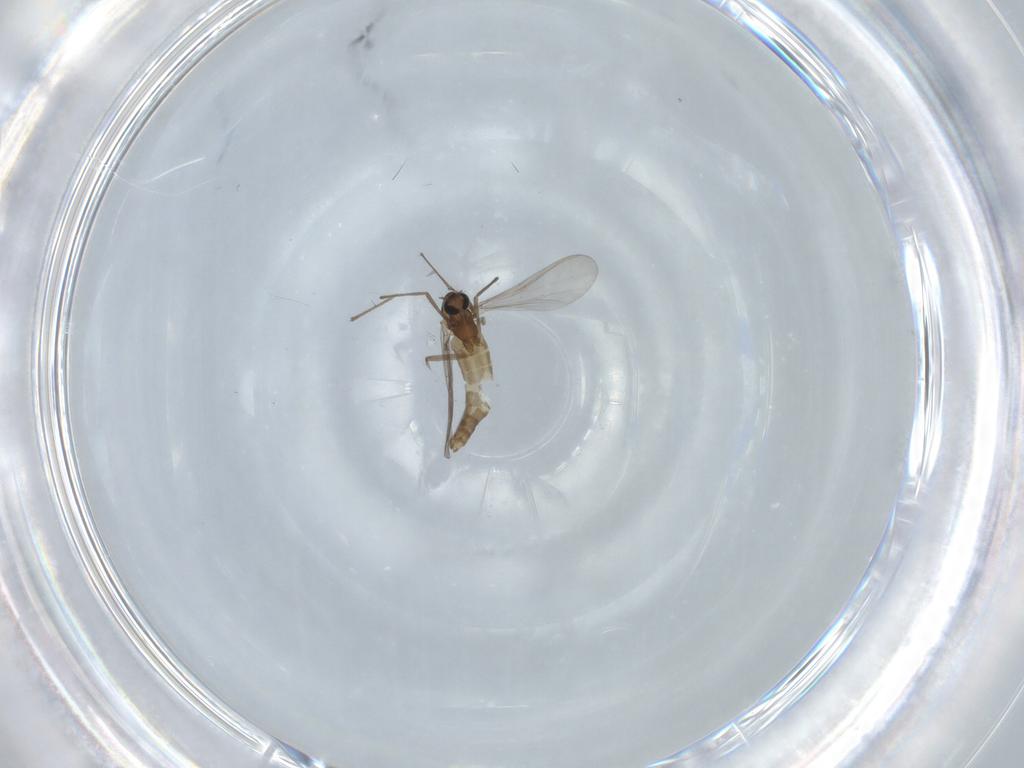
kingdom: Animalia
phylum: Arthropoda
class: Insecta
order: Diptera
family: Chironomidae
